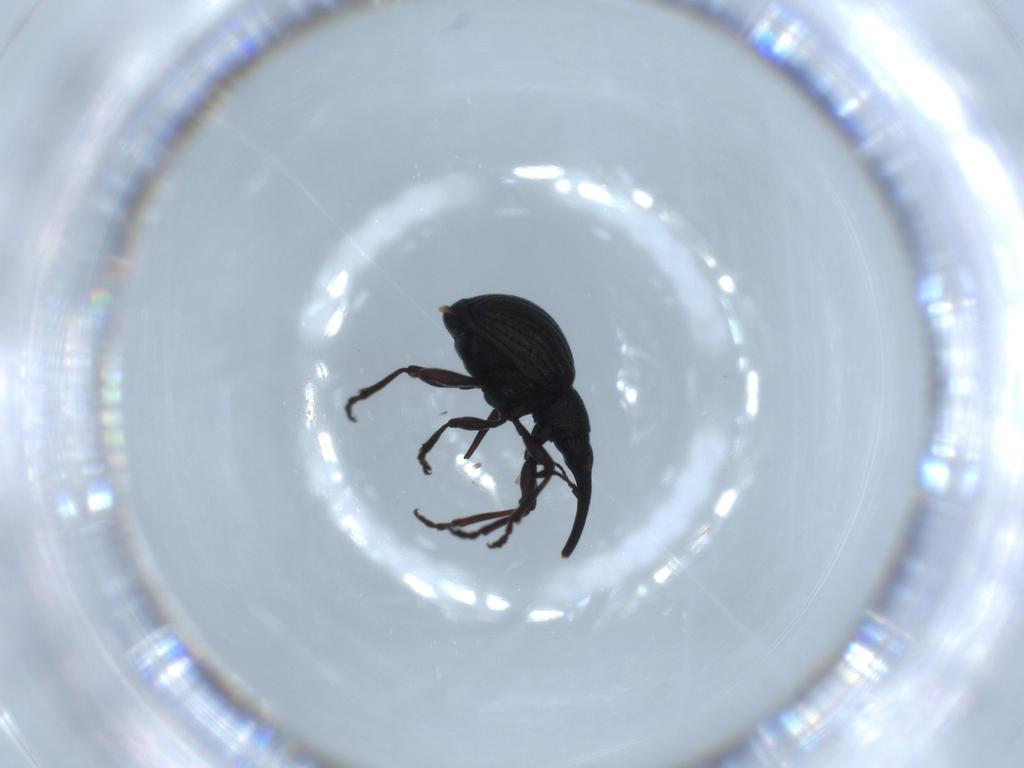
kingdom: Animalia
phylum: Arthropoda
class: Insecta
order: Coleoptera
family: Brentidae
